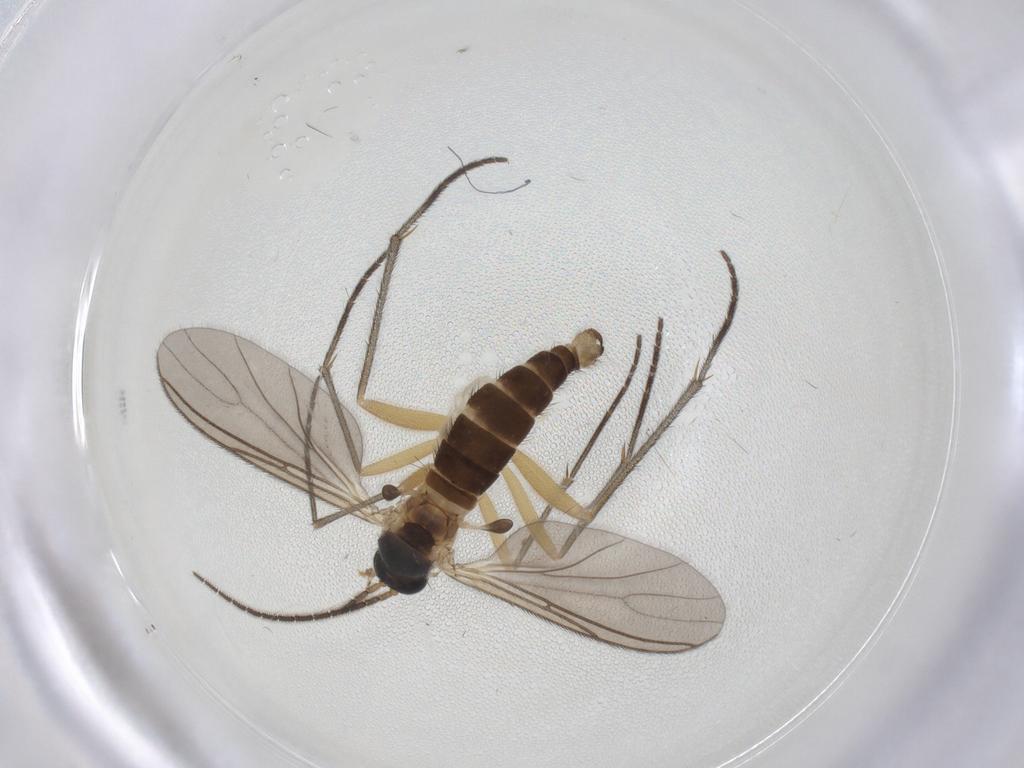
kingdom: Animalia
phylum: Arthropoda
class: Insecta
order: Diptera
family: Sciaridae
